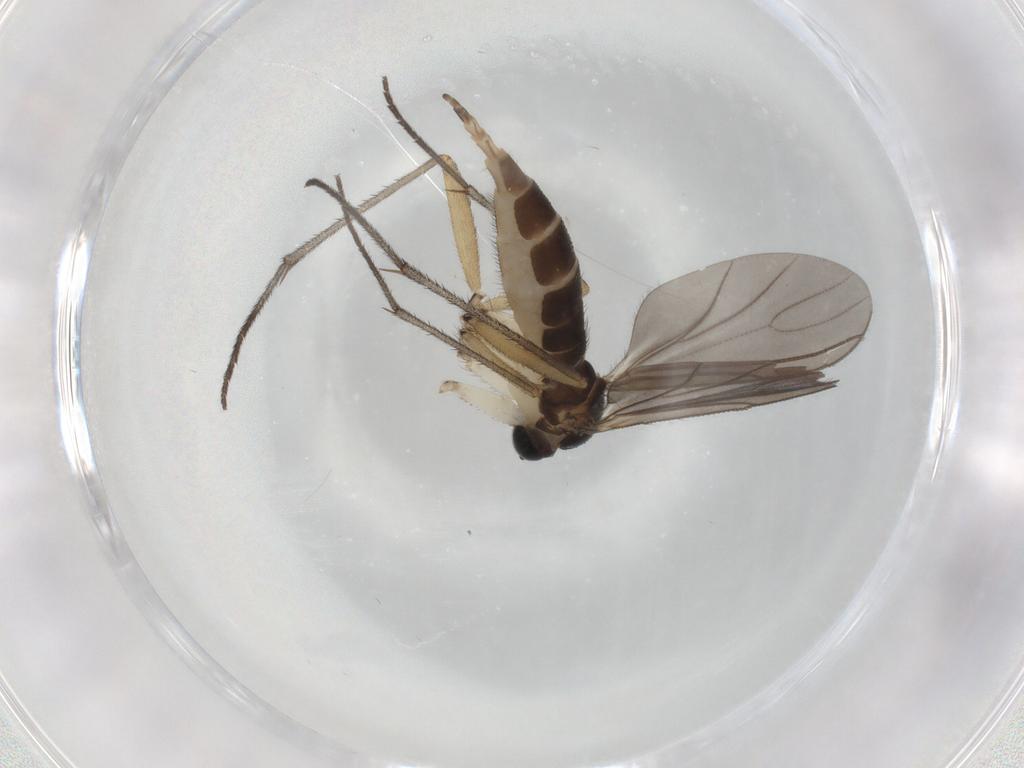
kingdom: Animalia
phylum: Arthropoda
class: Insecta
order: Diptera
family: Sciaridae
